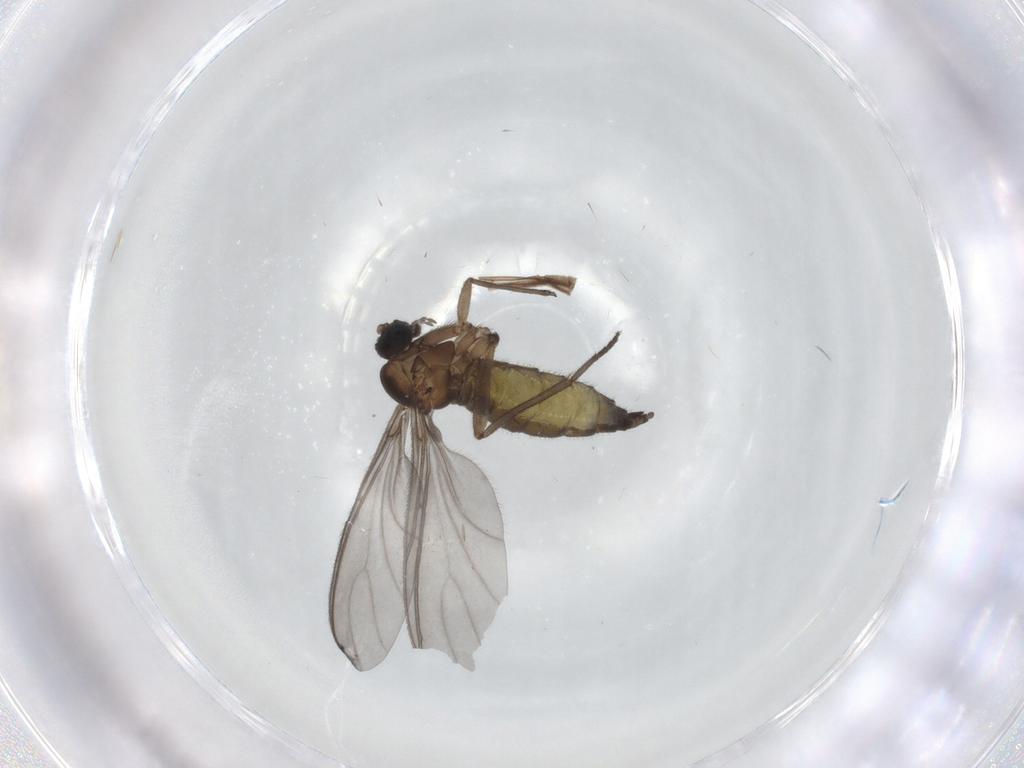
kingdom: Animalia
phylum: Arthropoda
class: Insecta
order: Diptera
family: Sciaridae
